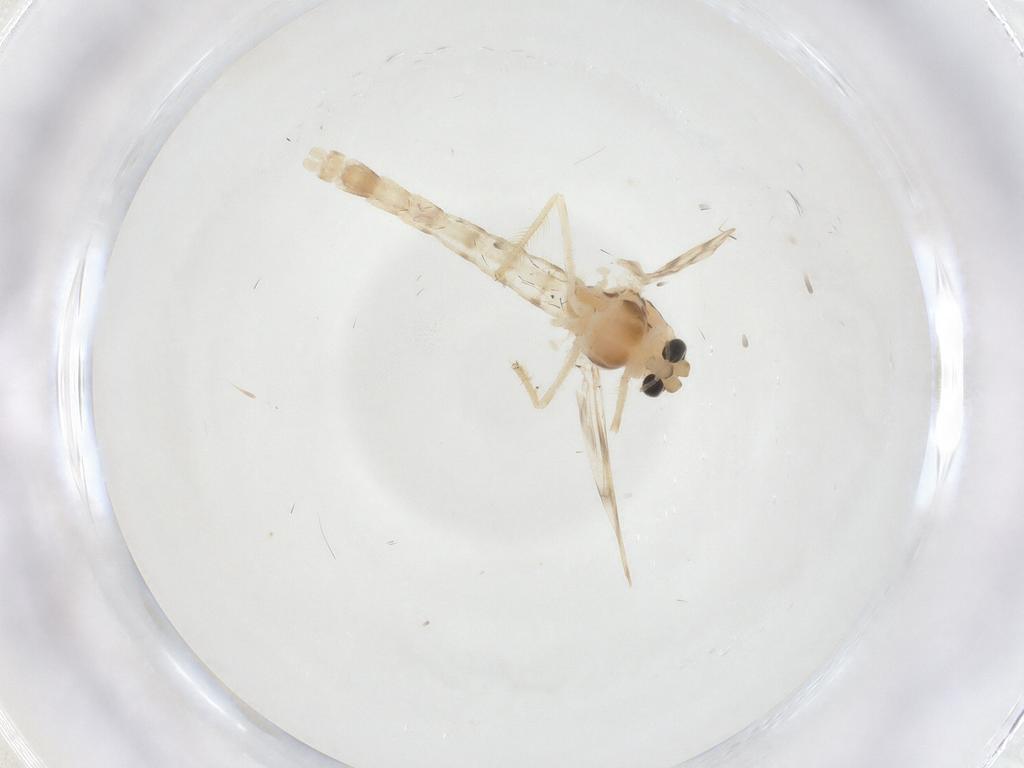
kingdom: Animalia
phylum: Arthropoda
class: Insecta
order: Diptera
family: Chironomidae
